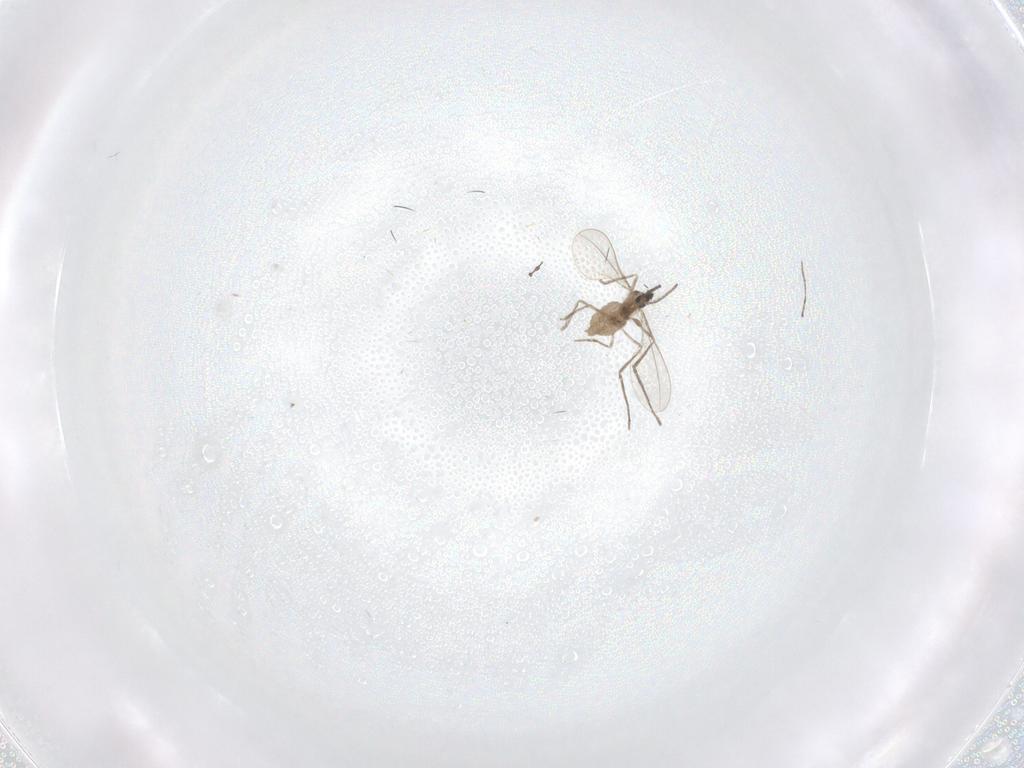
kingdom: Animalia
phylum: Arthropoda
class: Insecta
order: Diptera
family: Cecidomyiidae
